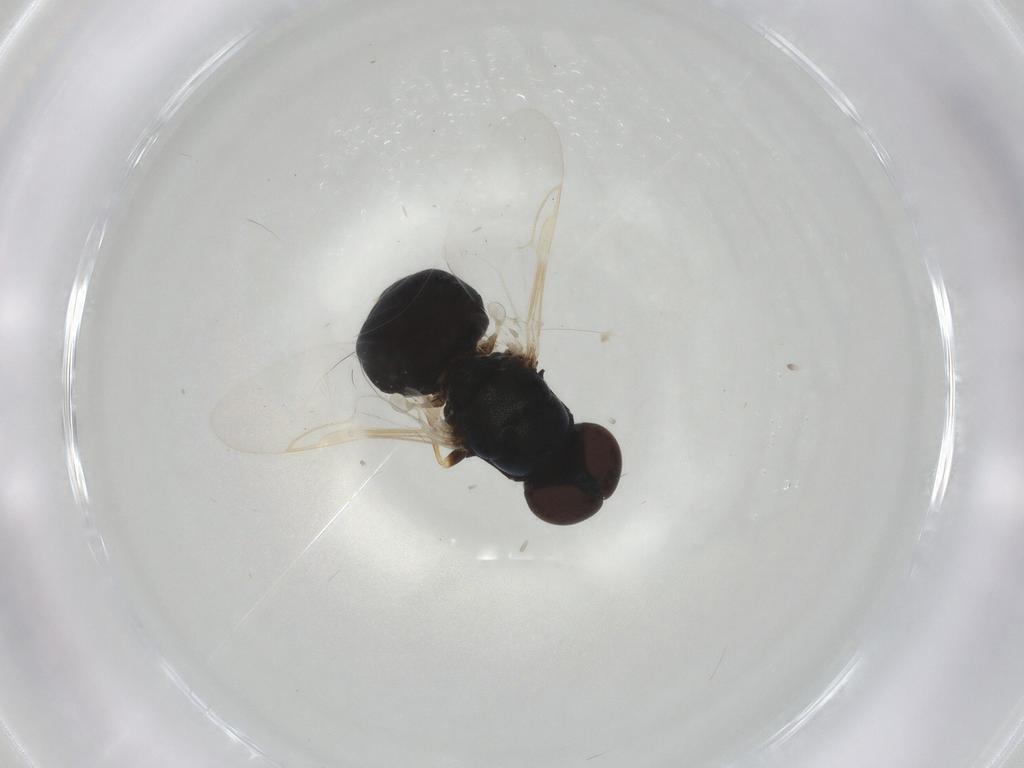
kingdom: Animalia
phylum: Arthropoda
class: Insecta
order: Diptera
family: Stratiomyidae
